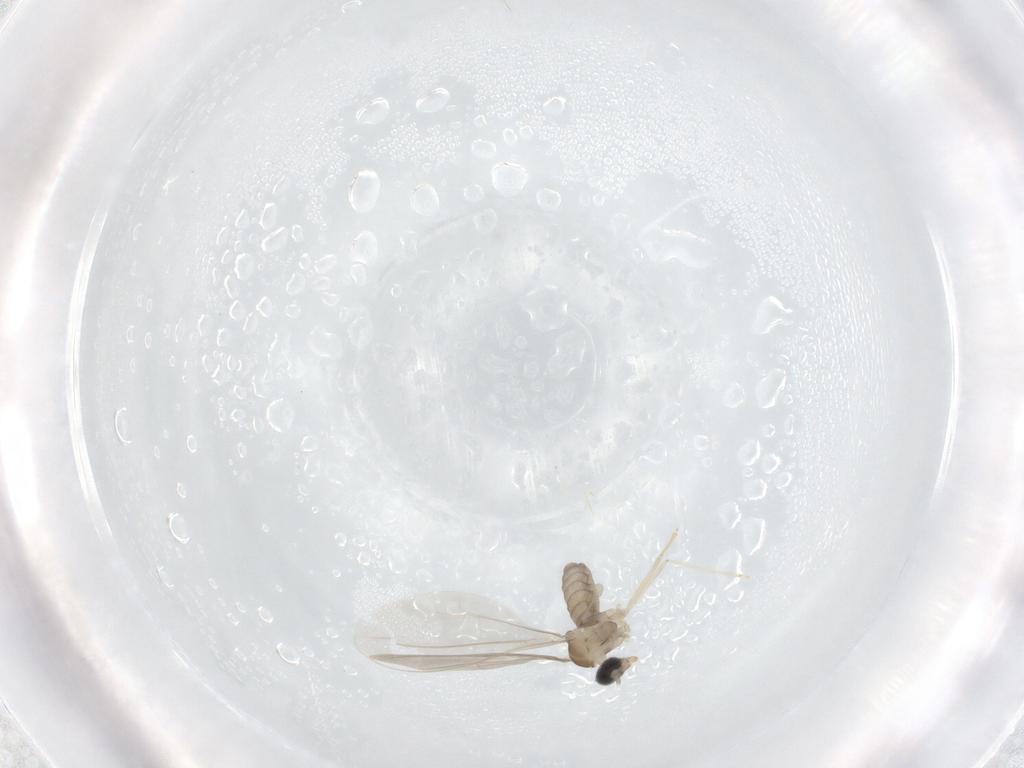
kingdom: Animalia
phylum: Arthropoda
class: Insecta
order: Diptera
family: Cecidomyiidae
